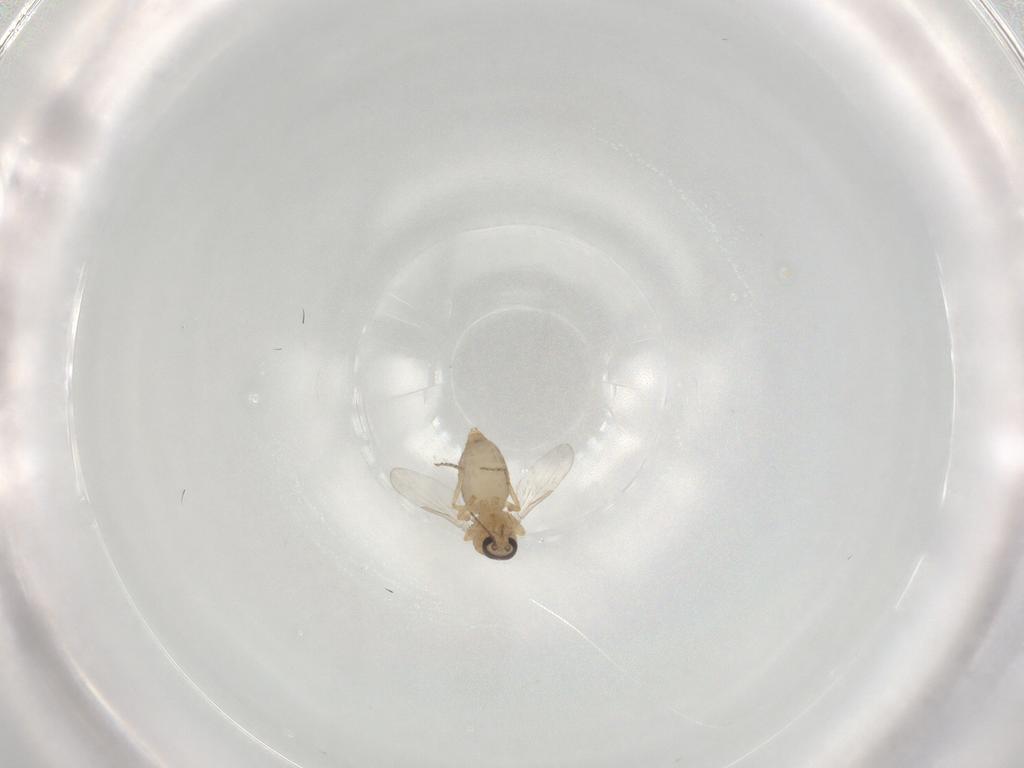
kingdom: Animalia
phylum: Arthropoda
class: Insecta
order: Diptera
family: Ceratopogonidae
